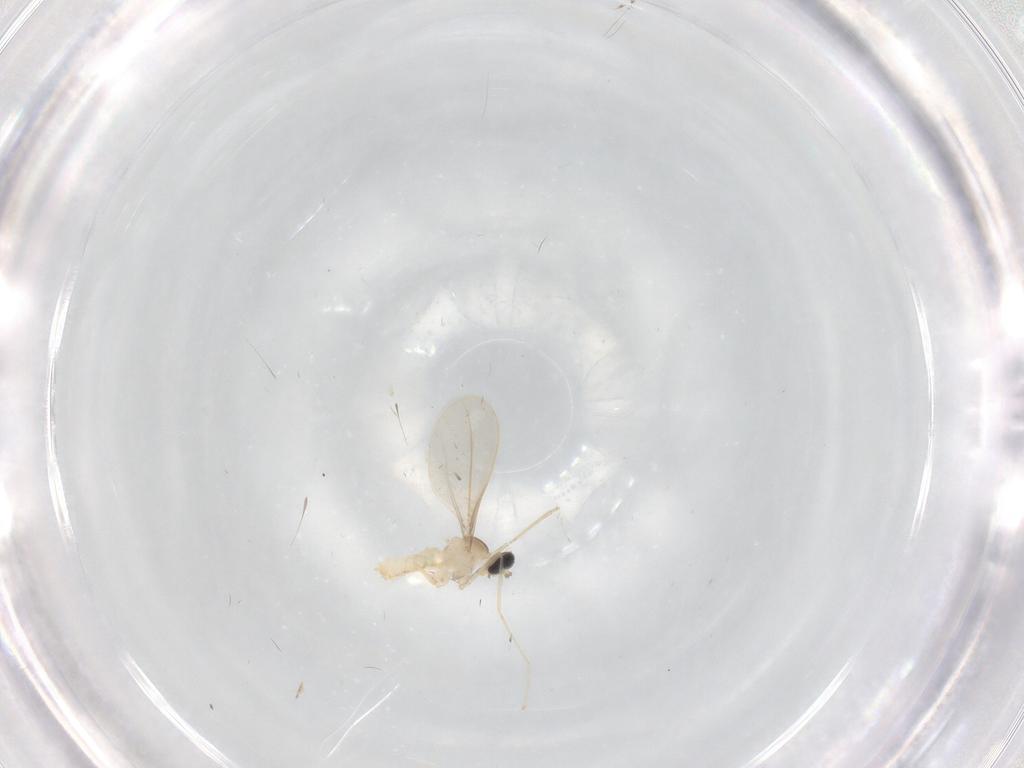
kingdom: Animalia
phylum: Arthropoda
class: Insecta
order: Diptera
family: Cecidomyiidae
